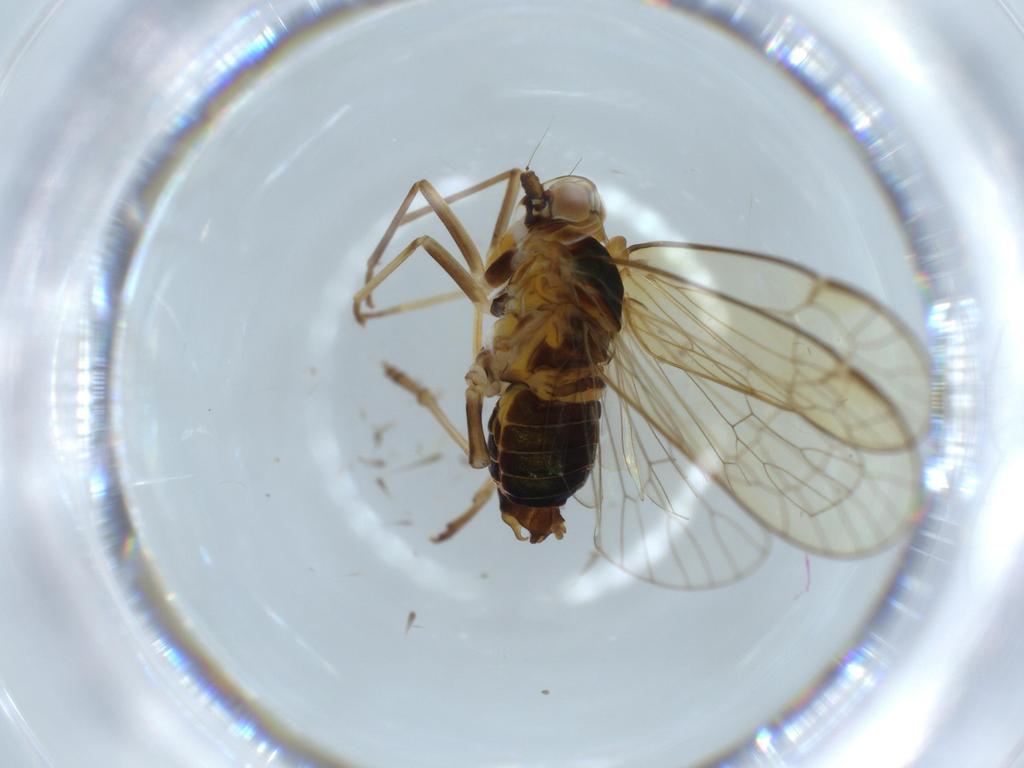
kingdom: Animalia
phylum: Arthropoda
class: Insecta
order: Hemiptera
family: Kinnaridae
